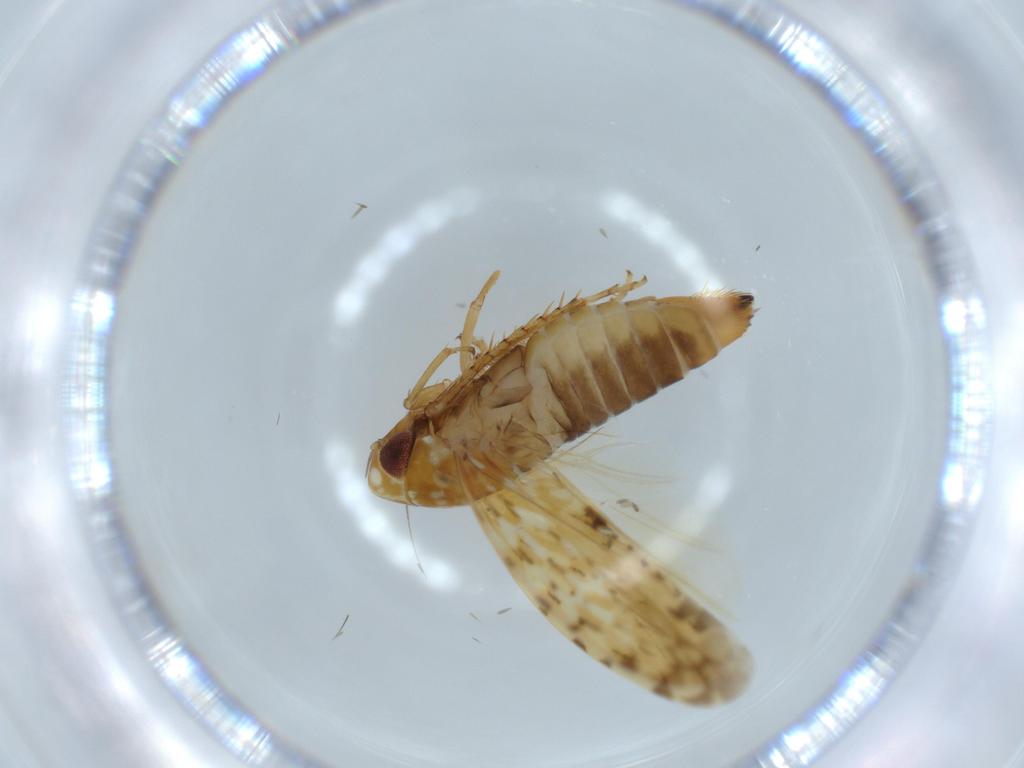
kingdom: Animalia
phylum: Arthropoda
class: Insecta
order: Hemiptera
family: Cicadellidae
